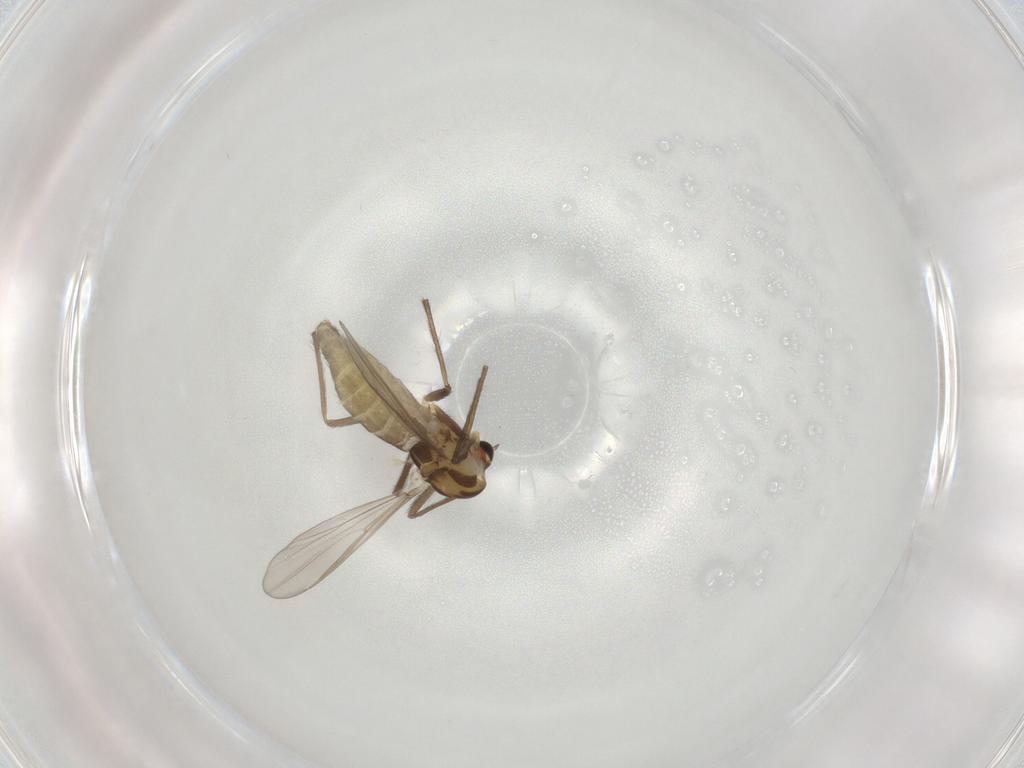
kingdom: Animalia
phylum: Arthropoda
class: Insecta
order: Diptera
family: Chironomidae
